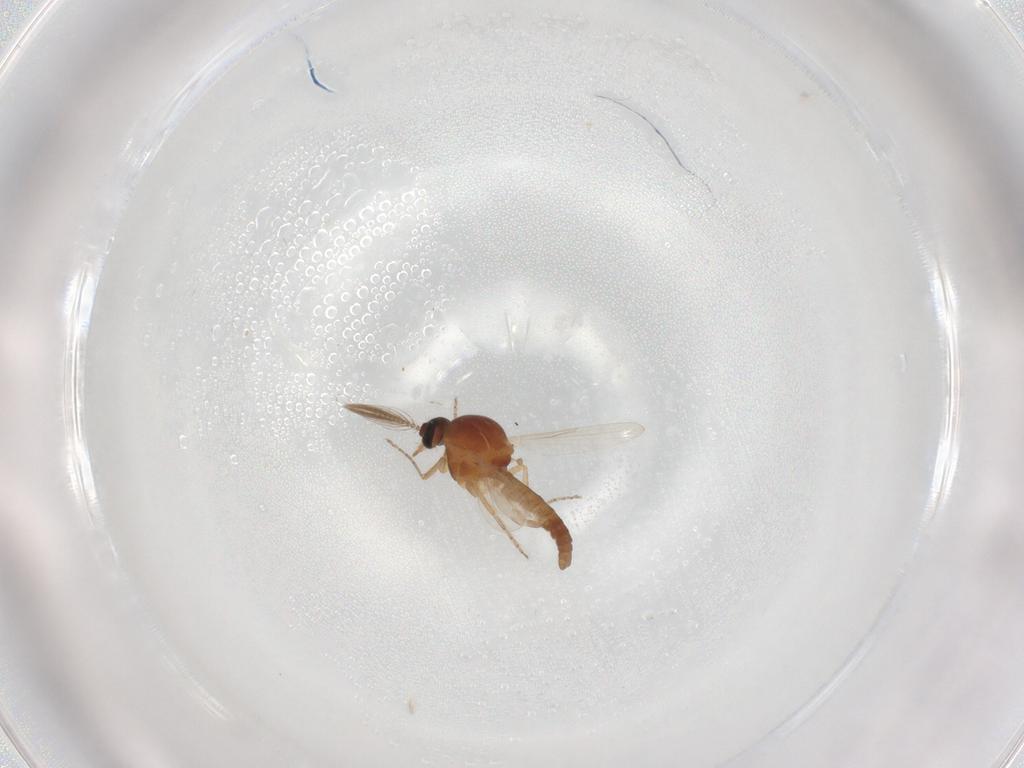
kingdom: Animalia
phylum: Arthropoda
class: Insecta
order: Diptera
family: Ceratopogonidae
